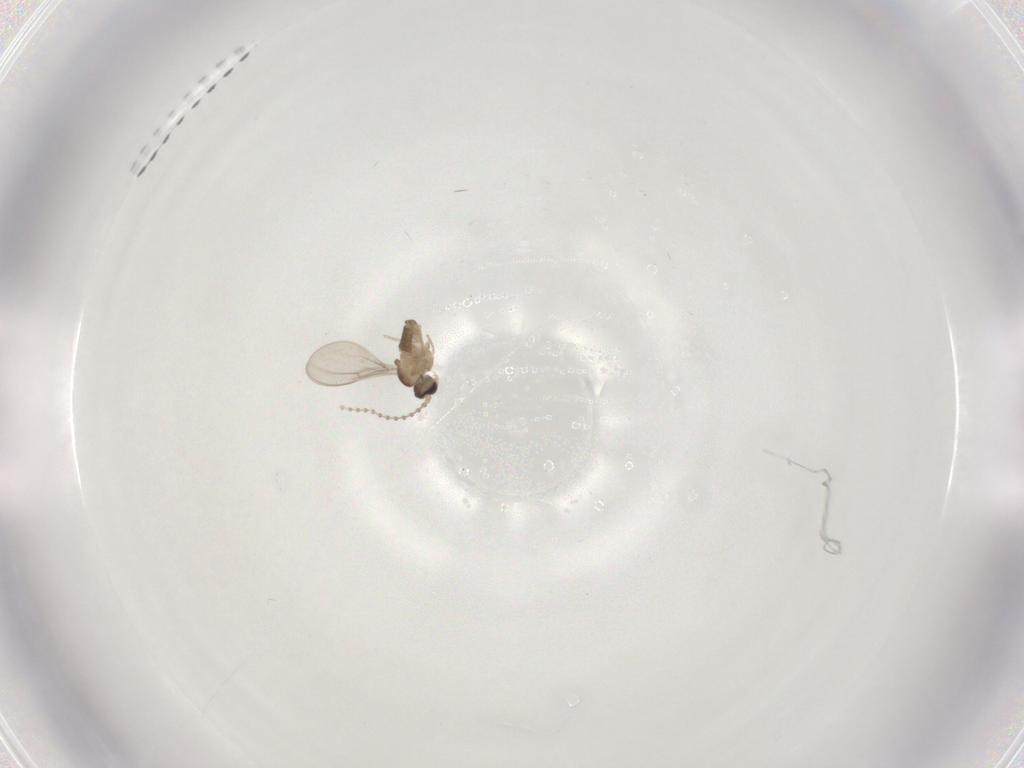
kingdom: Animalia
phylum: Arthropoda
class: Insecta
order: Diptera
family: Cecidomyiidae
